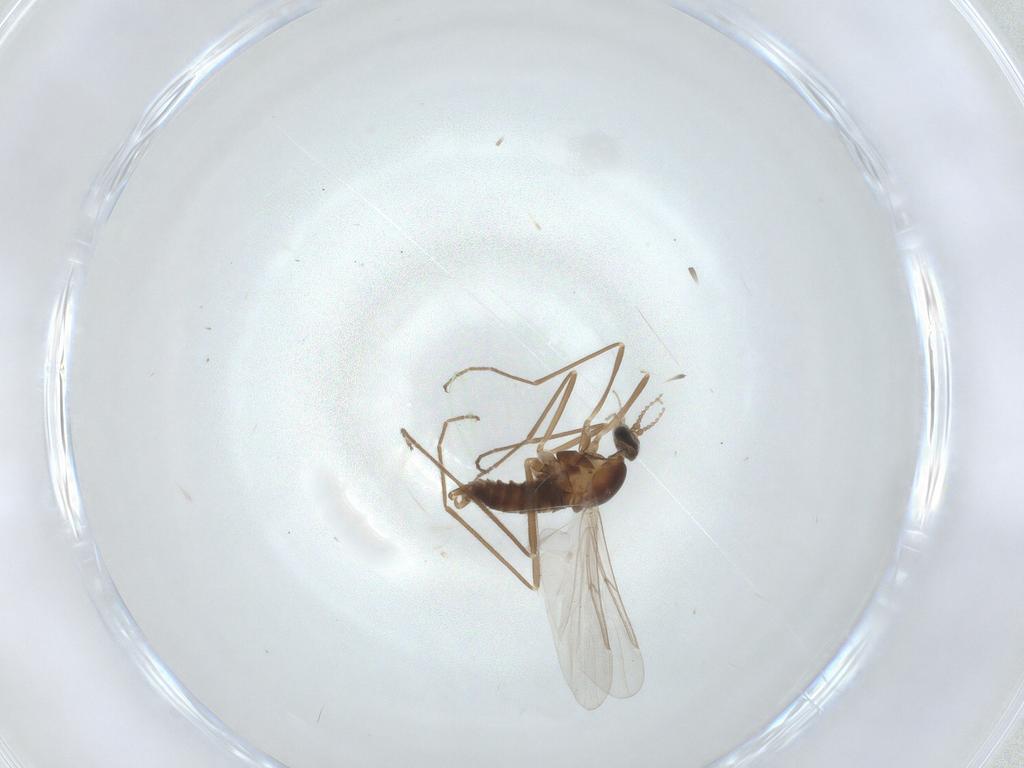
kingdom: Animalia
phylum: Arthropoda
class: Insecta
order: Diptera
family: Cecidomyiidae
